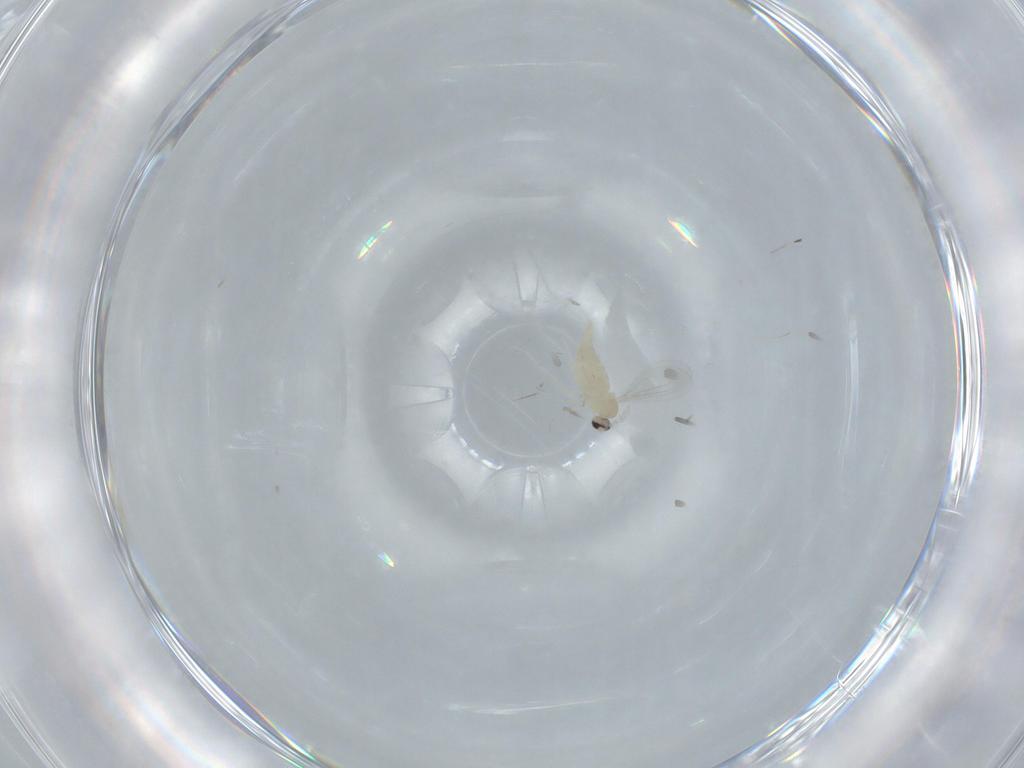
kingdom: Animalia
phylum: Arthropoda
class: Insecta
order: Diptera
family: Cecidomyiidae
